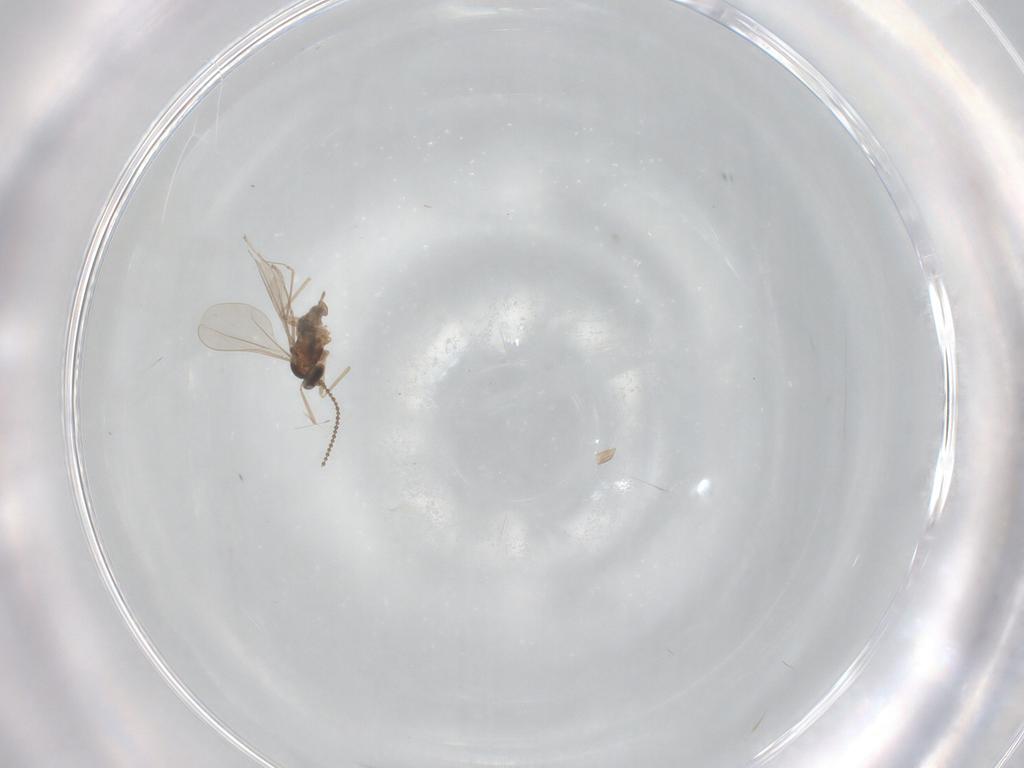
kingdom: Animalia
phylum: Arthropoda
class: Insecta
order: Diptera
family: Cecidomyiidae
